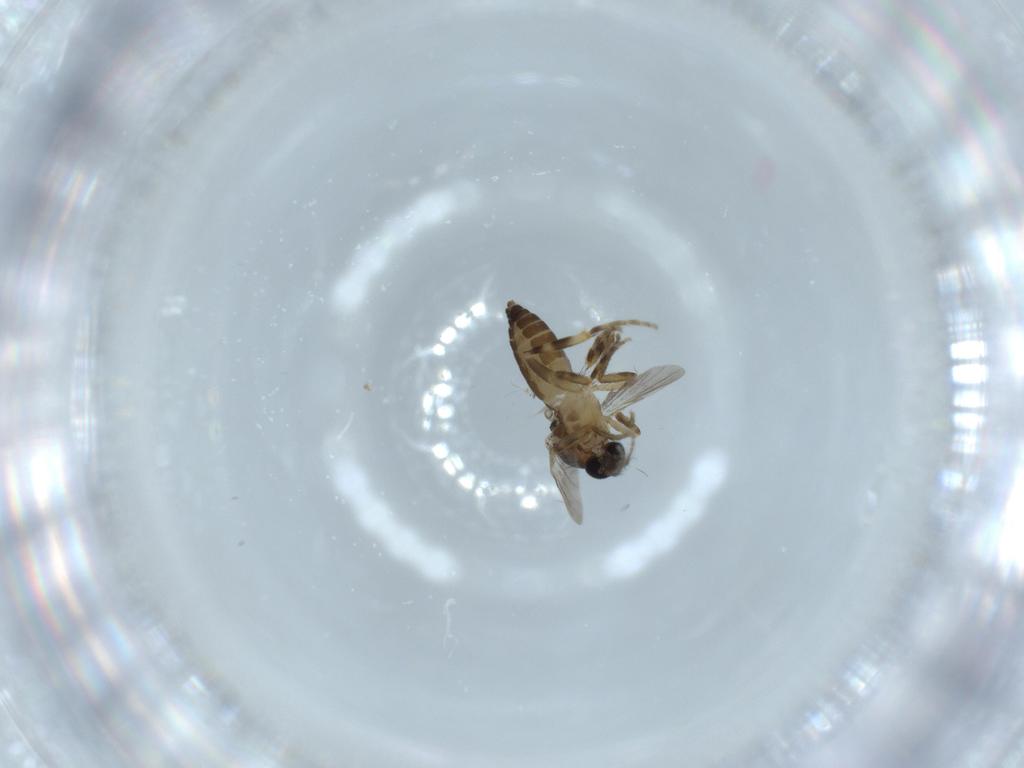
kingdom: Animalia
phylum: Arthropoda
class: Insecta
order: Diptera
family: Ceratopogonidae
